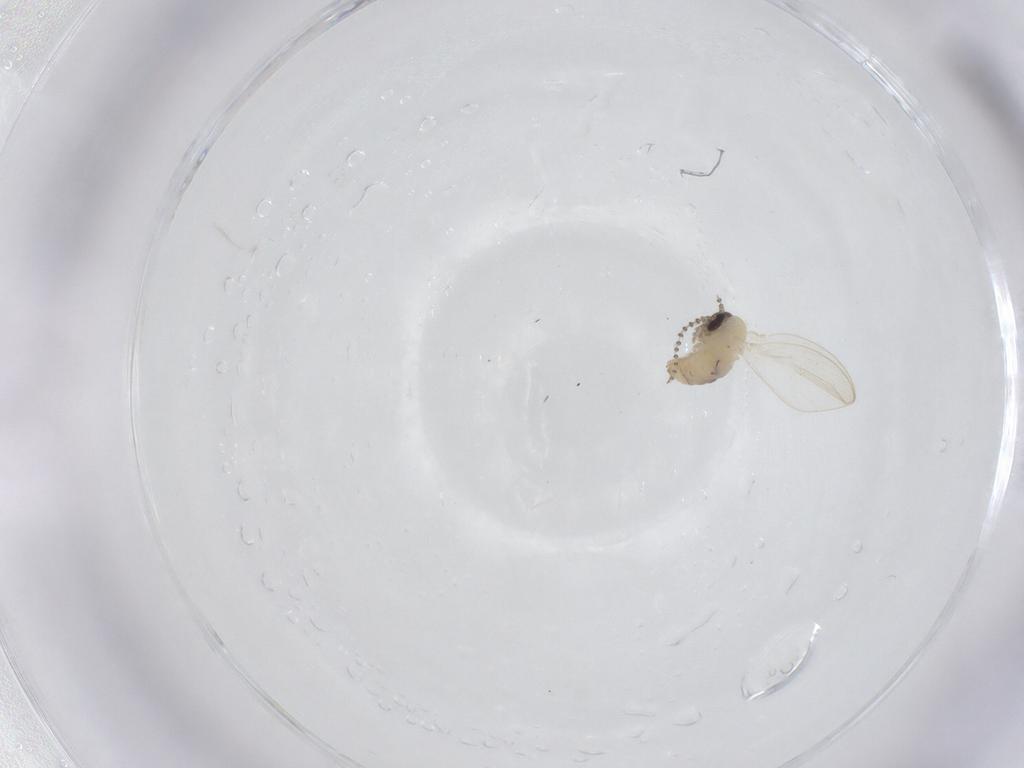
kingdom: Animalia
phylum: Arthropoda
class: Insecta
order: Diptera
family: Psychodidae
